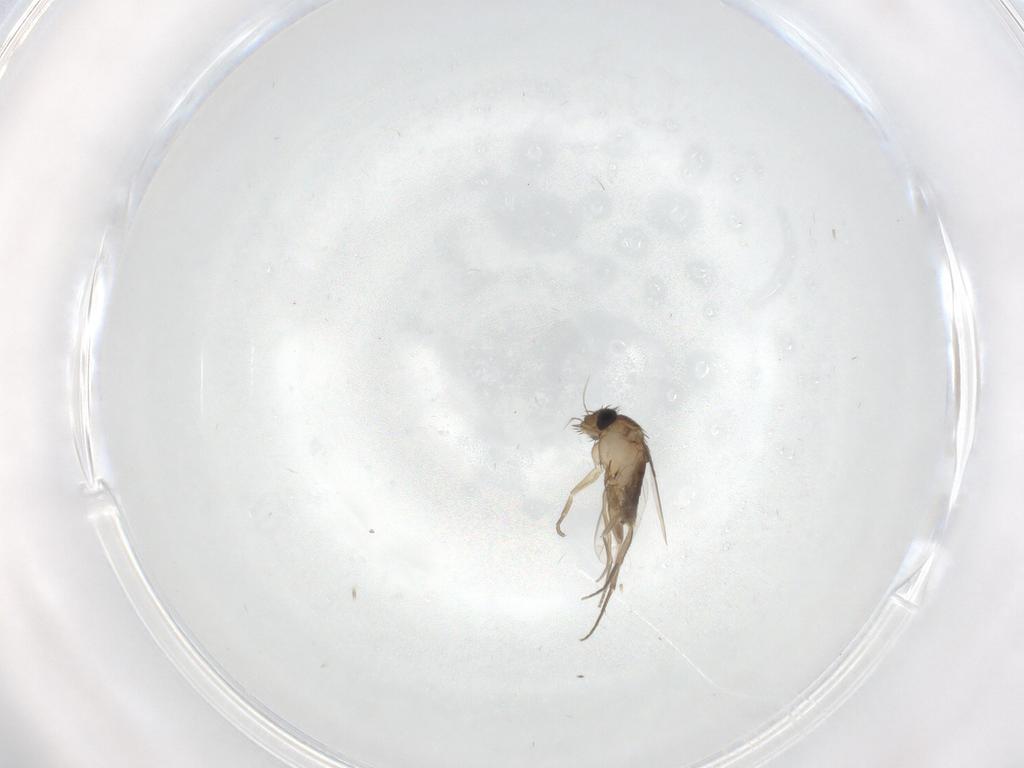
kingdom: Animalia
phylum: Arthropoda
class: Insecta
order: Diptera
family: Phoridae
